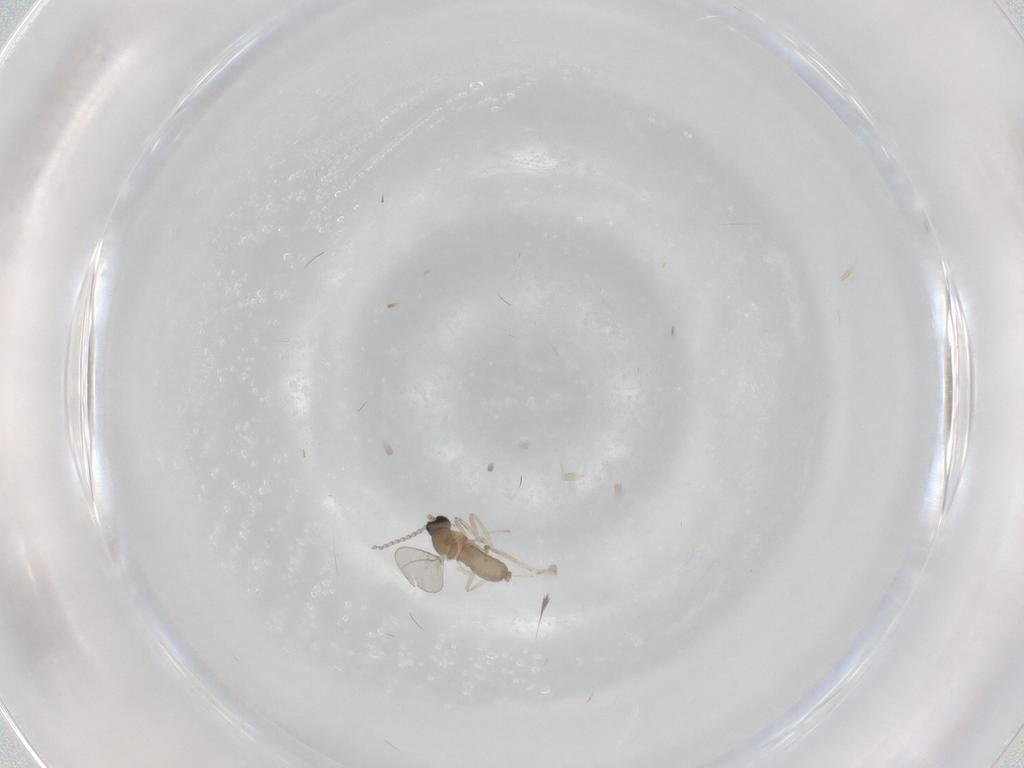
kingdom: Animalia
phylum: Arthropoda
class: Insecta
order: Diptera
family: Cecidomyiidae
